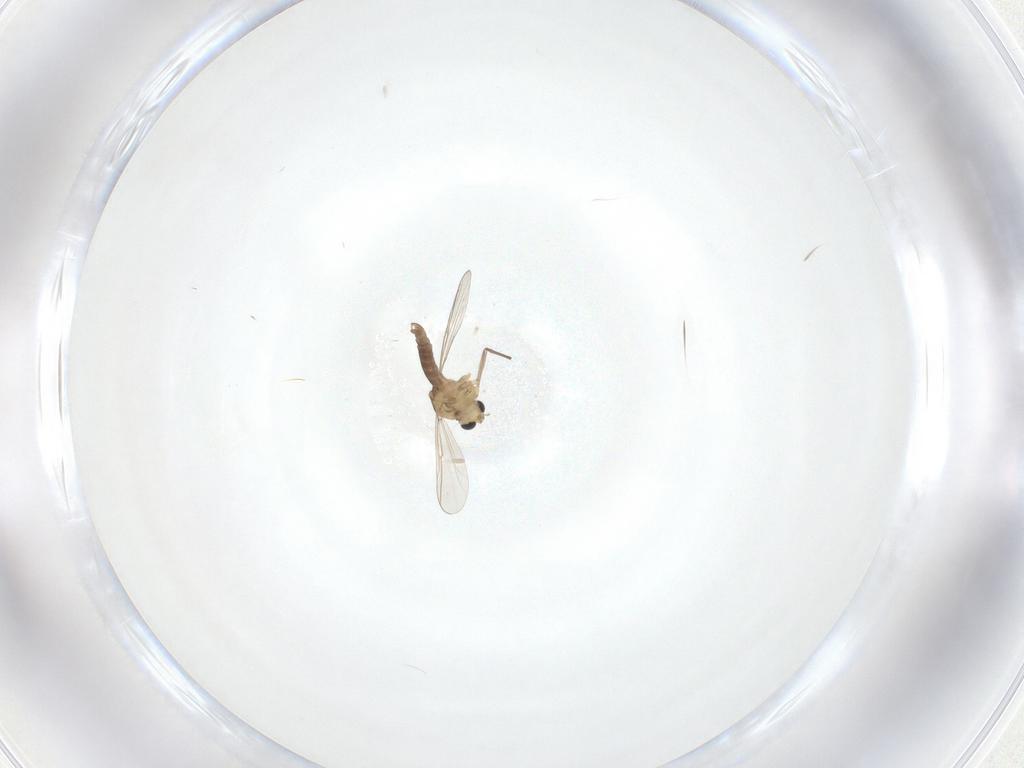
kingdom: Animalia
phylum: Arthropoda
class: Insecta
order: Diptera
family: Chironomidae
